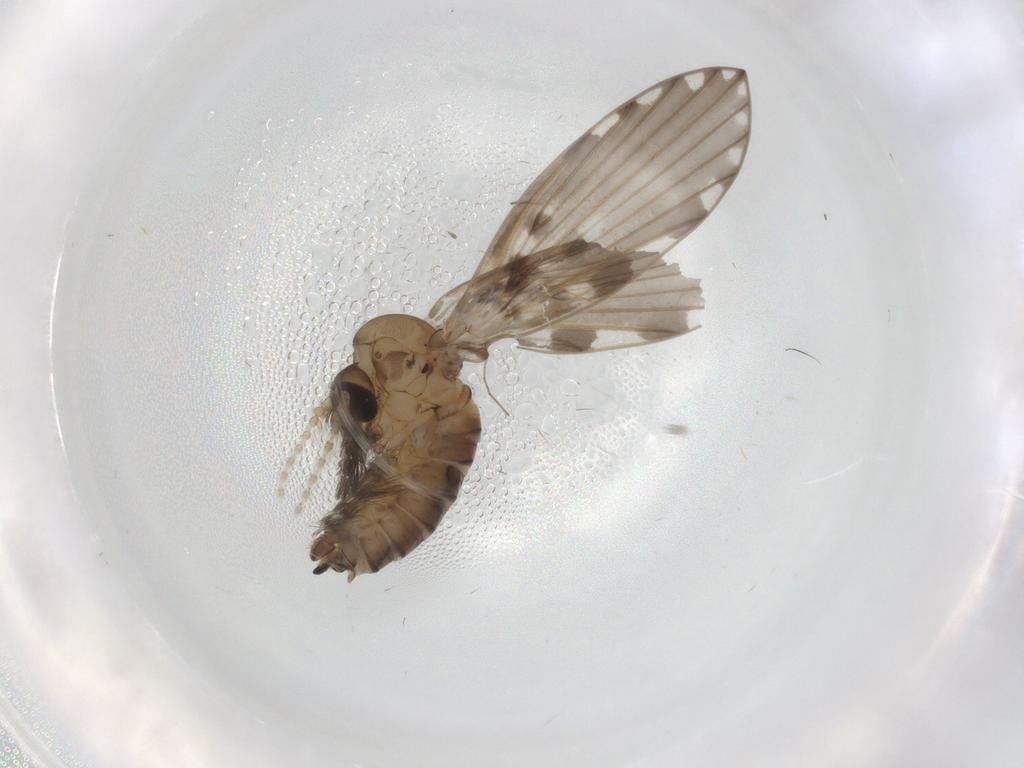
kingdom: Animalia
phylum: Arthropoda
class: Insecta
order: Diptera
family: Psychodidae
